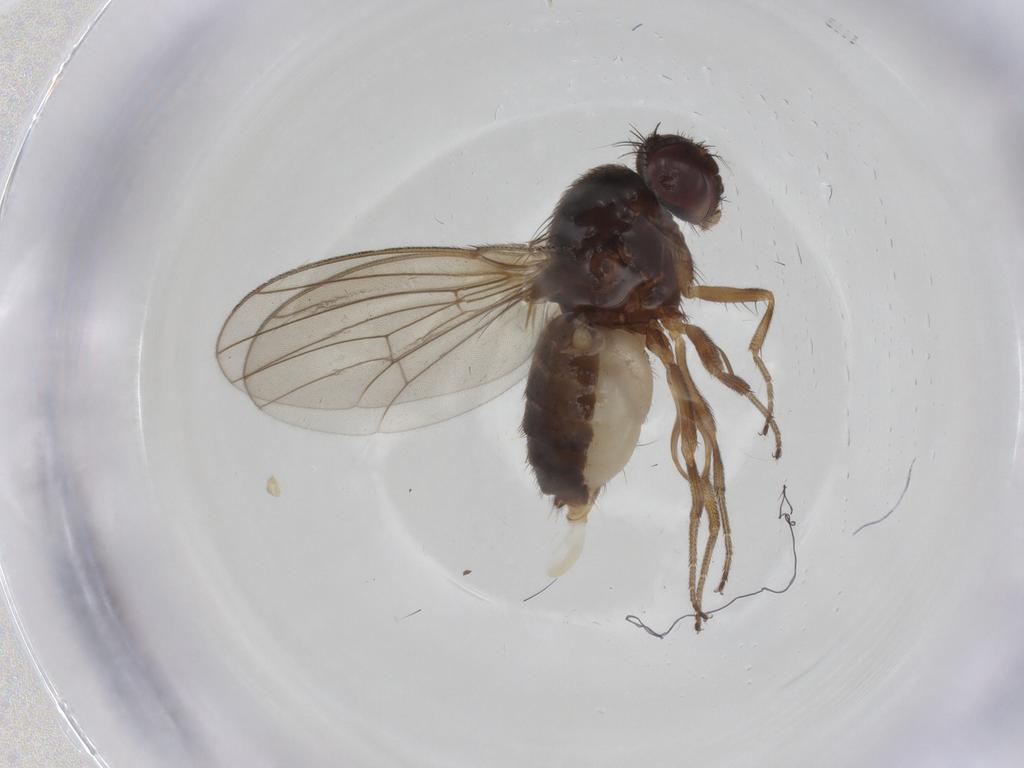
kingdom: Animalia
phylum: Arthropoda
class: Insecta
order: Diptera
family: Drosophilidae
